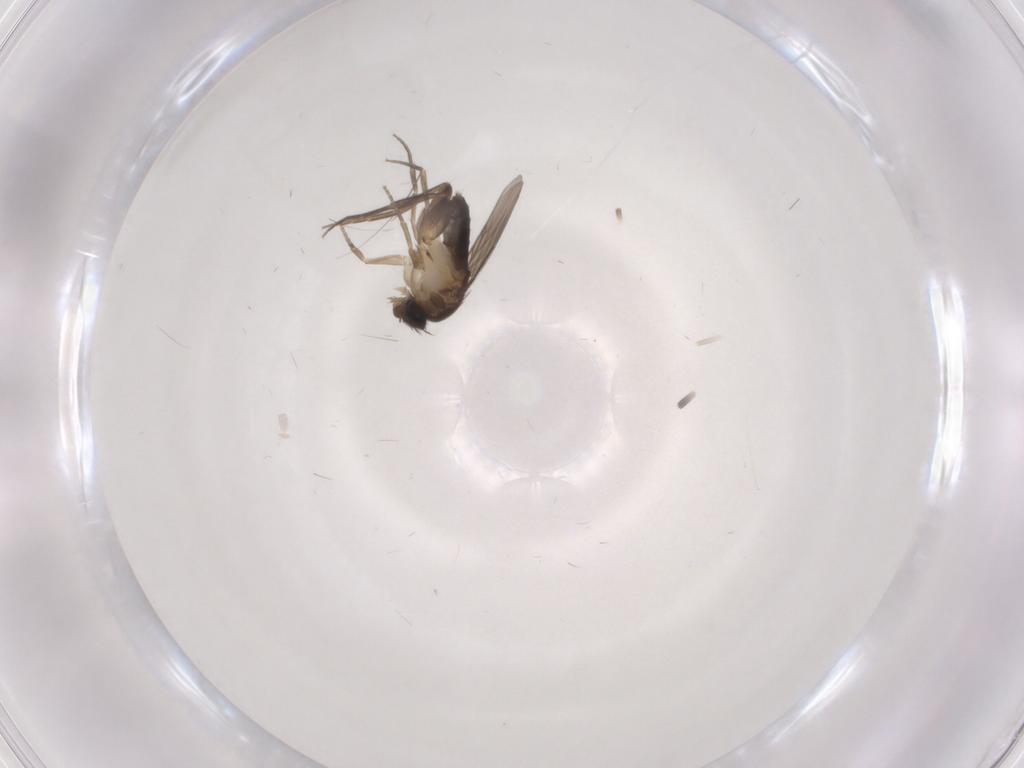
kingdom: Animalia
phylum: Arthropoda
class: Insecta
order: Diptera
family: Phoridae
